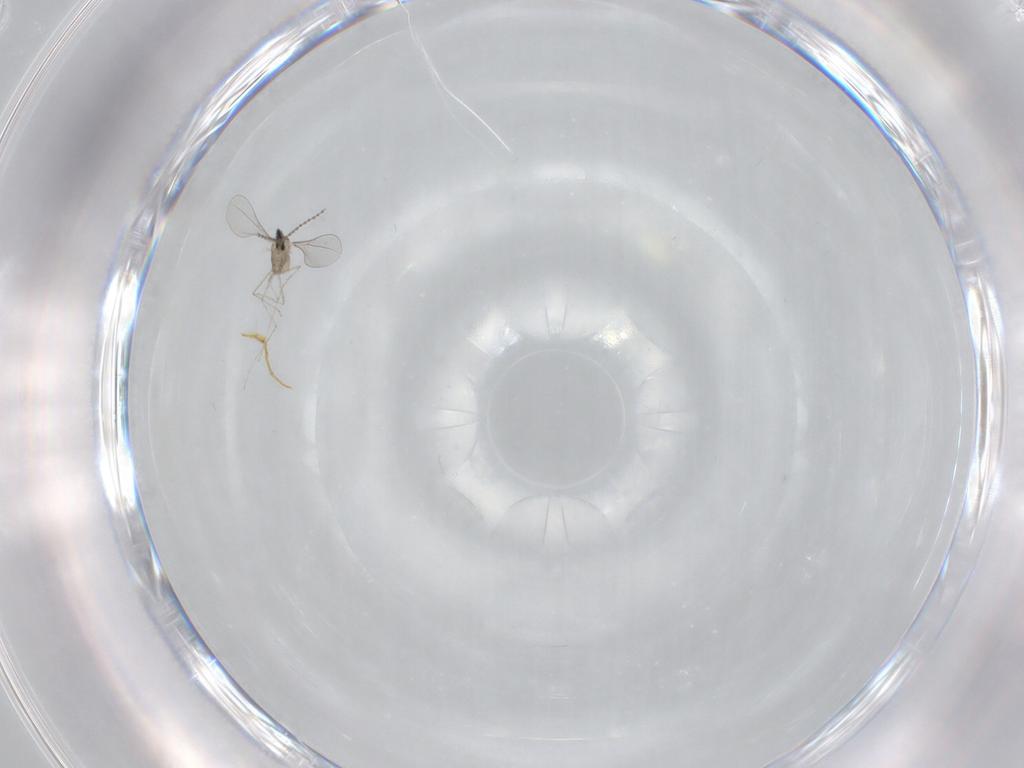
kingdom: Animalia
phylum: Arthropoda
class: Insecta
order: Diptera
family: Cecidomyiidae
